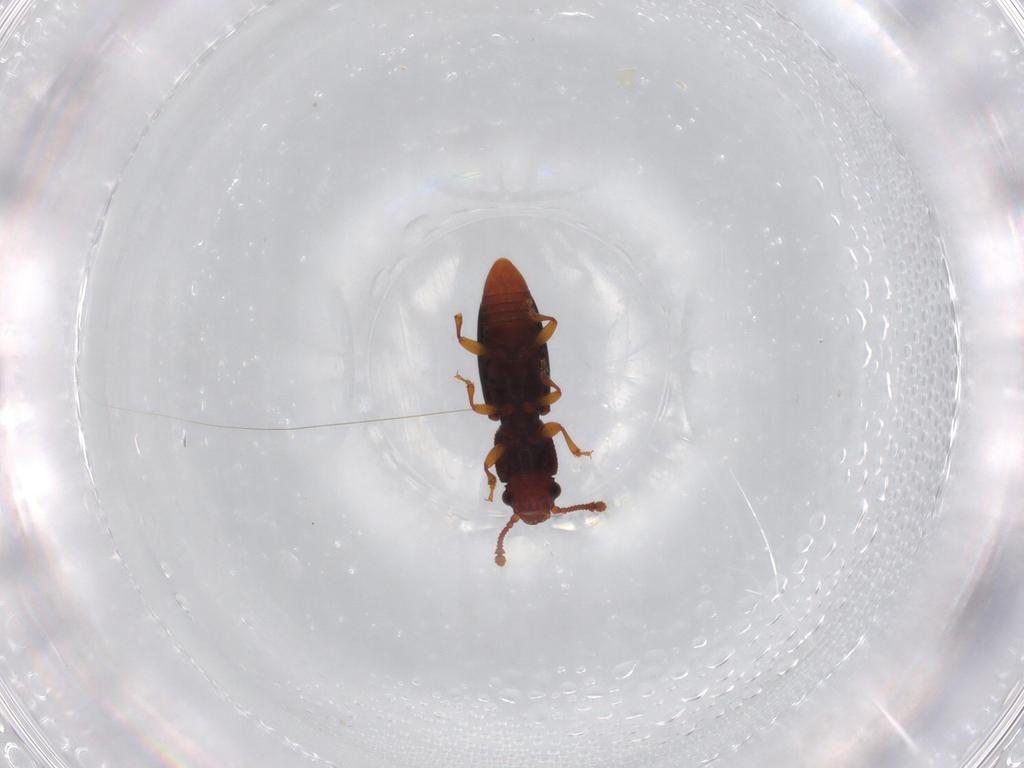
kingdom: Animalia
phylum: Arthropoda
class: Insecta
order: Coleoptera
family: Monotomidae
